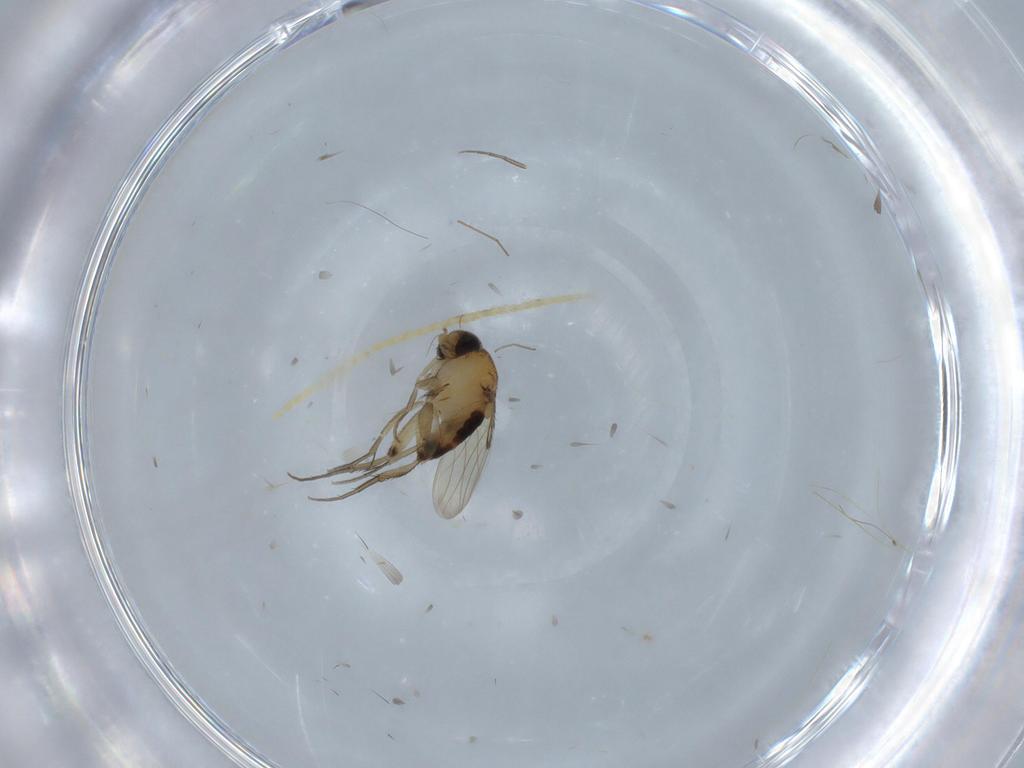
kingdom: Animalia
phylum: Arthropoda
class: Insecta
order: Diptera
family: Phoridae
